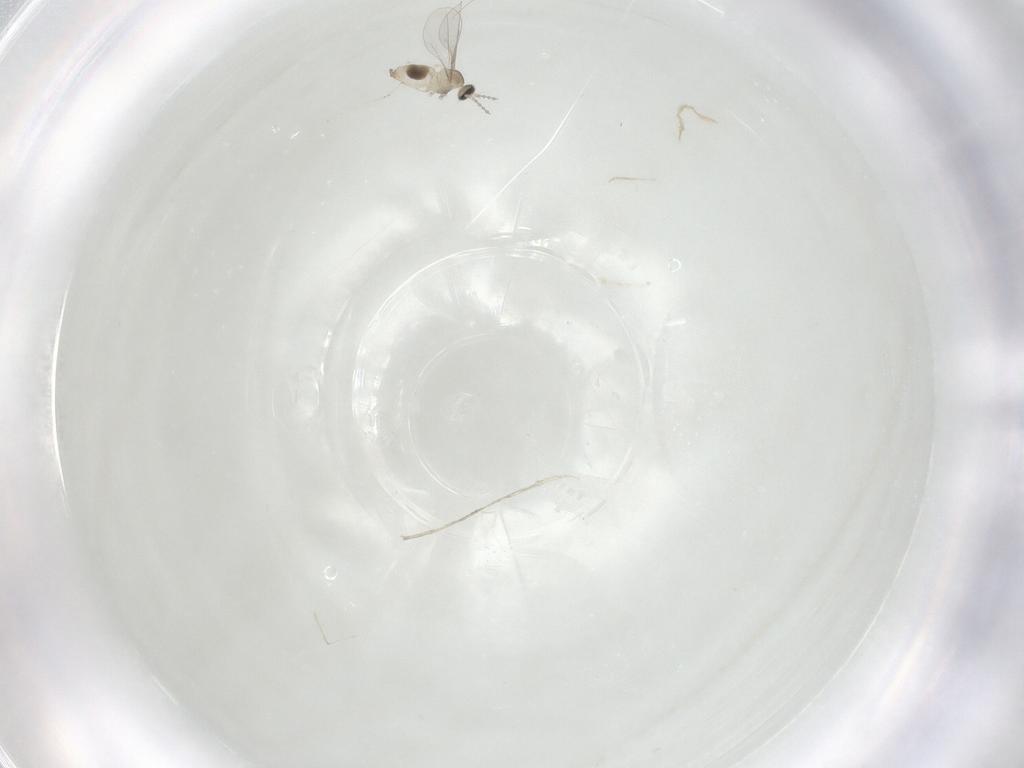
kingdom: Animalia
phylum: Arthropoda
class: Insecta
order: Diptera
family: Cecidomyiidae
